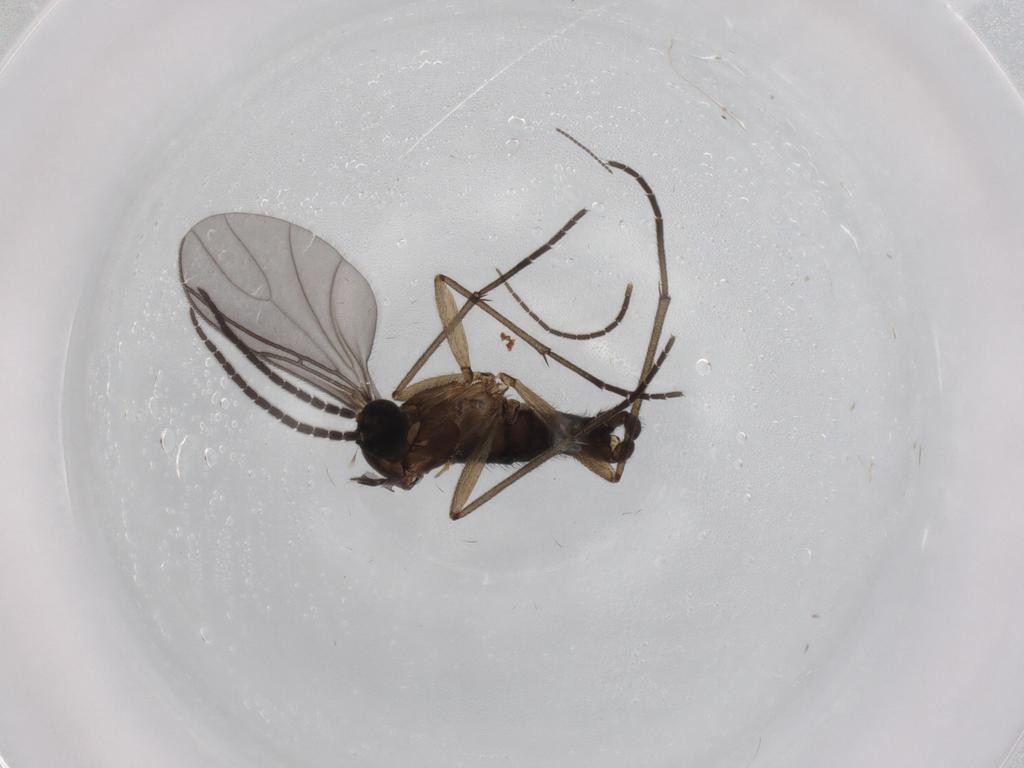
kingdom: Animalia
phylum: Arthropoda
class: Insecta
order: Diptera
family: Sciaridae
